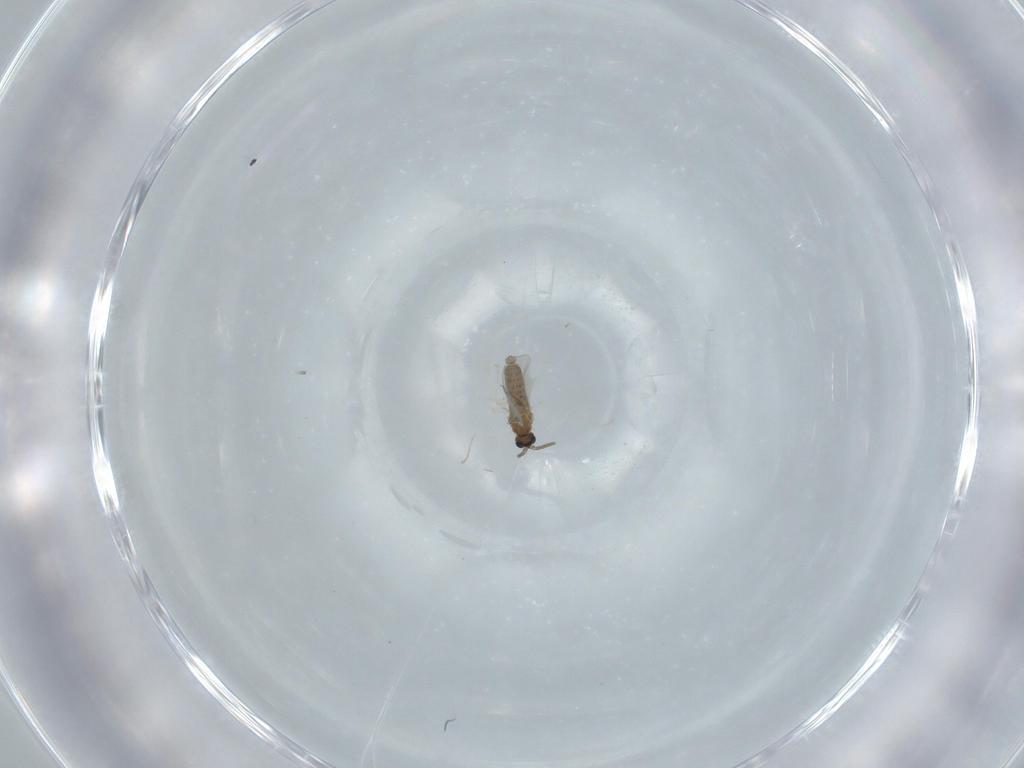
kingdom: Animalia
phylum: Arthropoda
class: Insecta
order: Diptera
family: Cecidomyiidae
